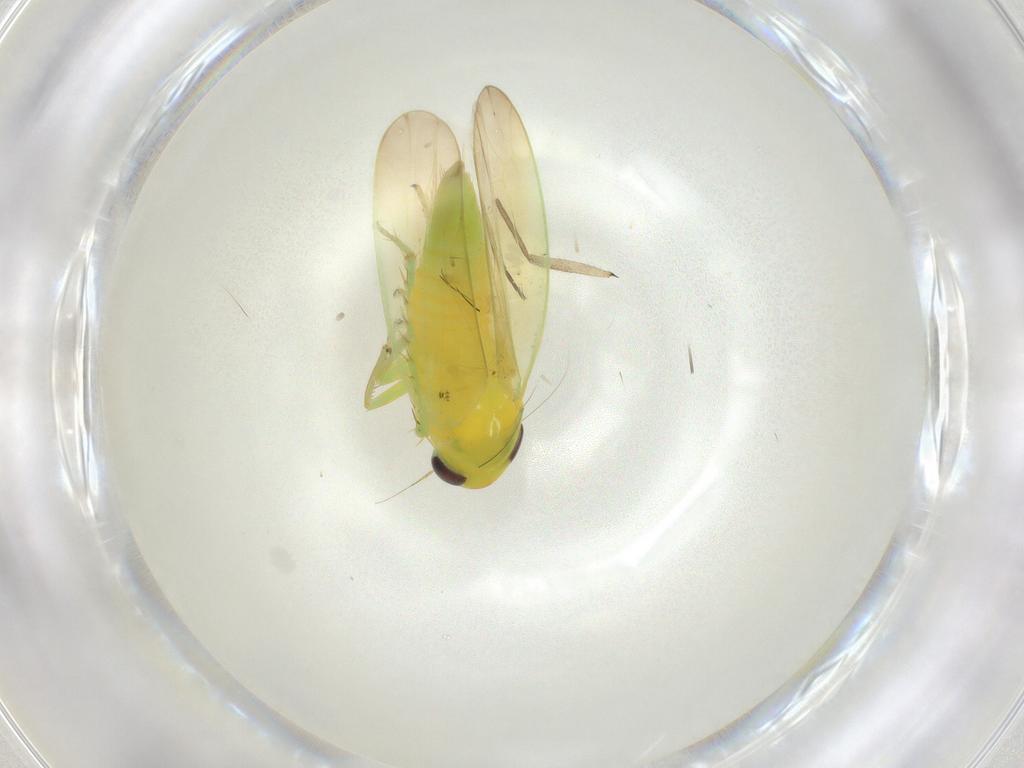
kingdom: Animalia
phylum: Arthropoda
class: Insecta
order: Hemiptera
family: Cicadellidae
